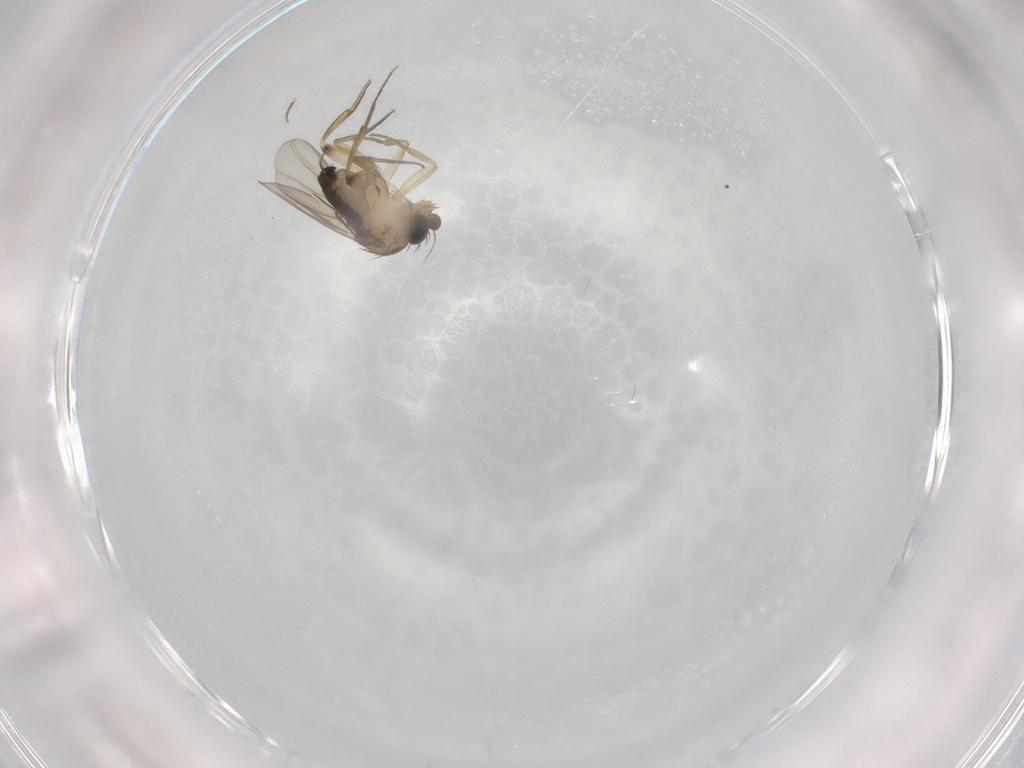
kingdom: Animalia
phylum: Arthropoda
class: Insecta
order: Diptera
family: Phoridae
